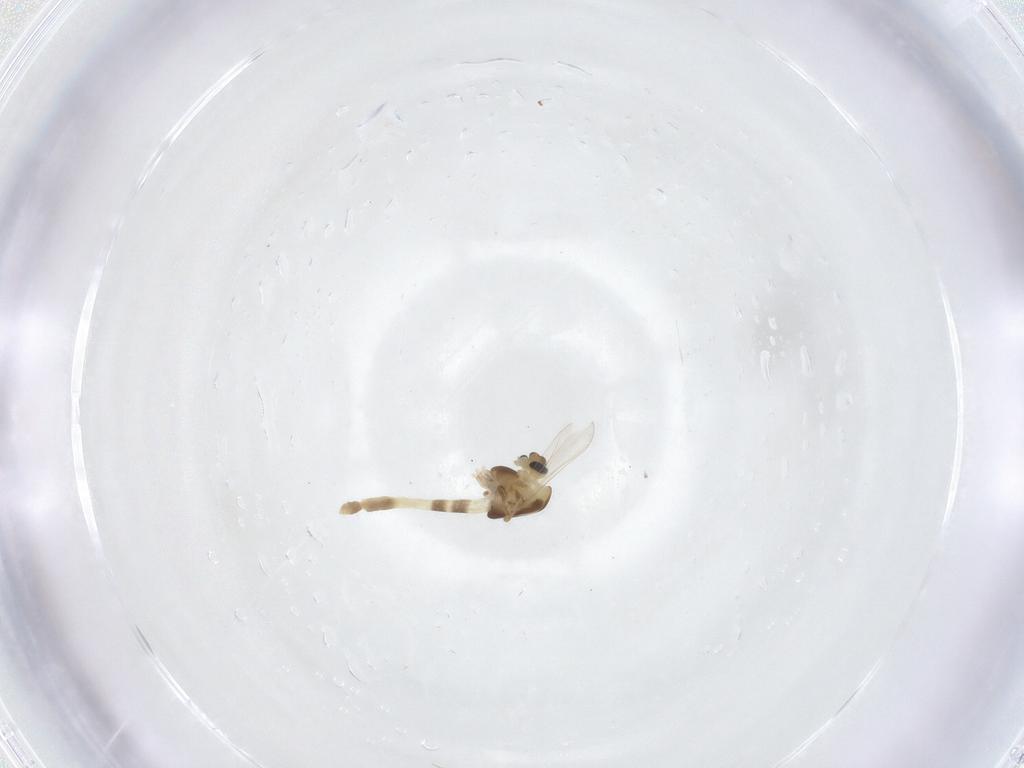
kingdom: Animalia
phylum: Arthropoda
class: Insecta
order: Diptera
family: Chironomidae
